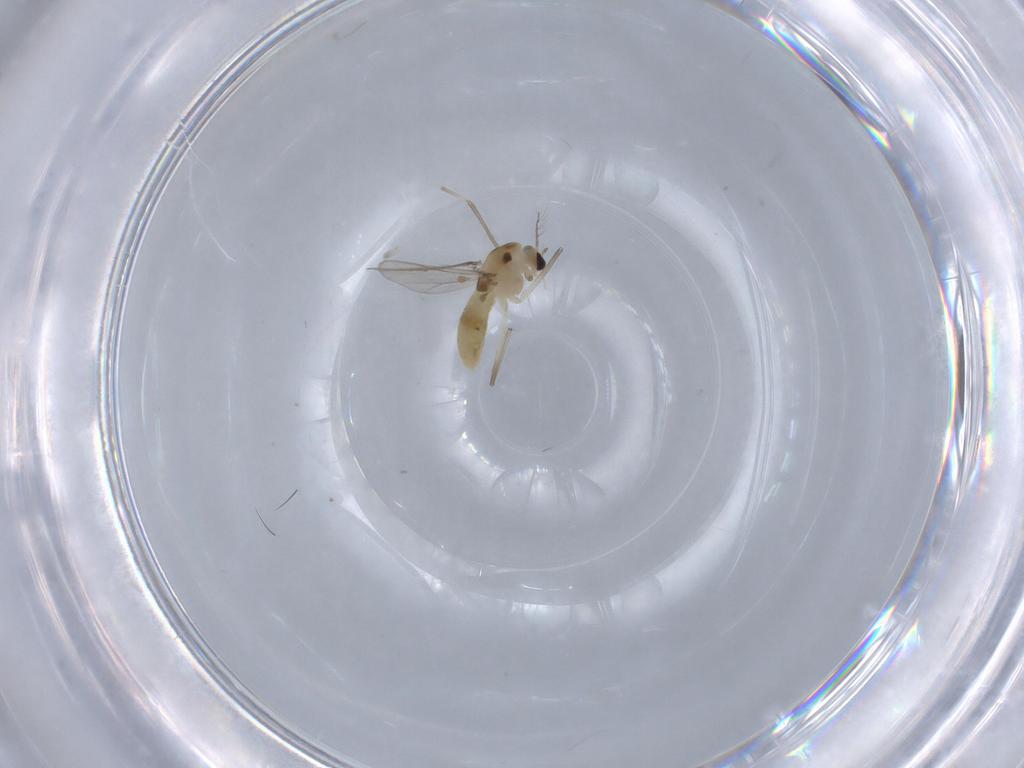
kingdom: Animalia
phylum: Arthropoda
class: Insecta
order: Diptera
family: Chironomidae
